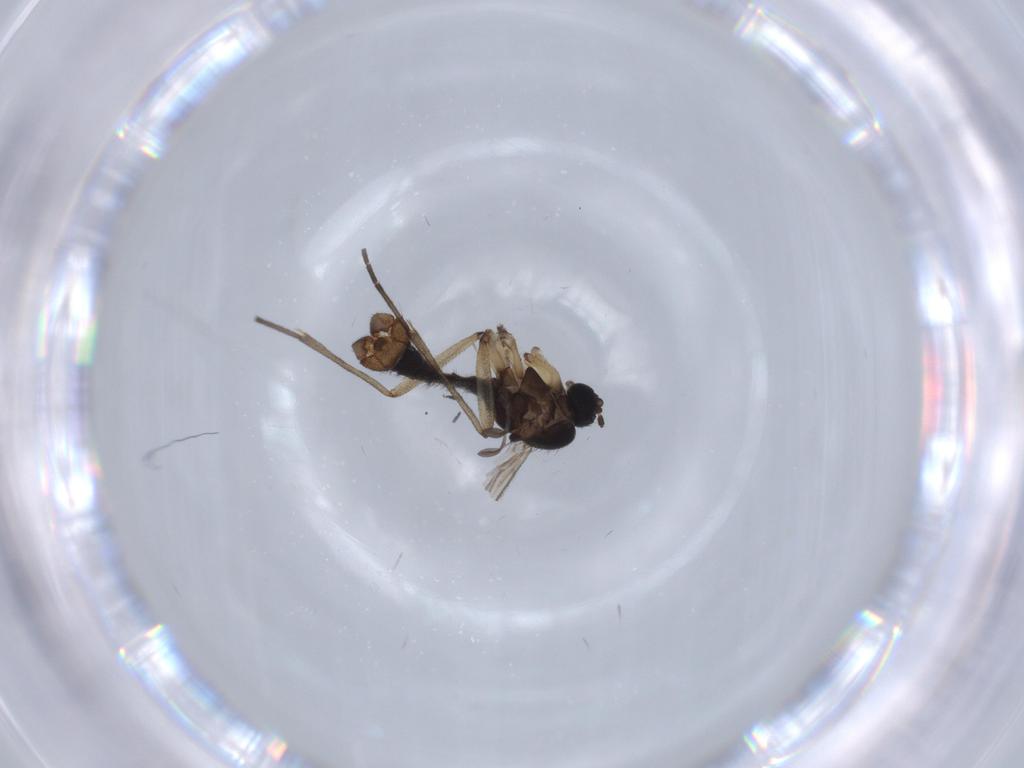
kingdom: Animalia
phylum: Arthropoda
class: Insecta
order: Diptera
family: Sciaridae
